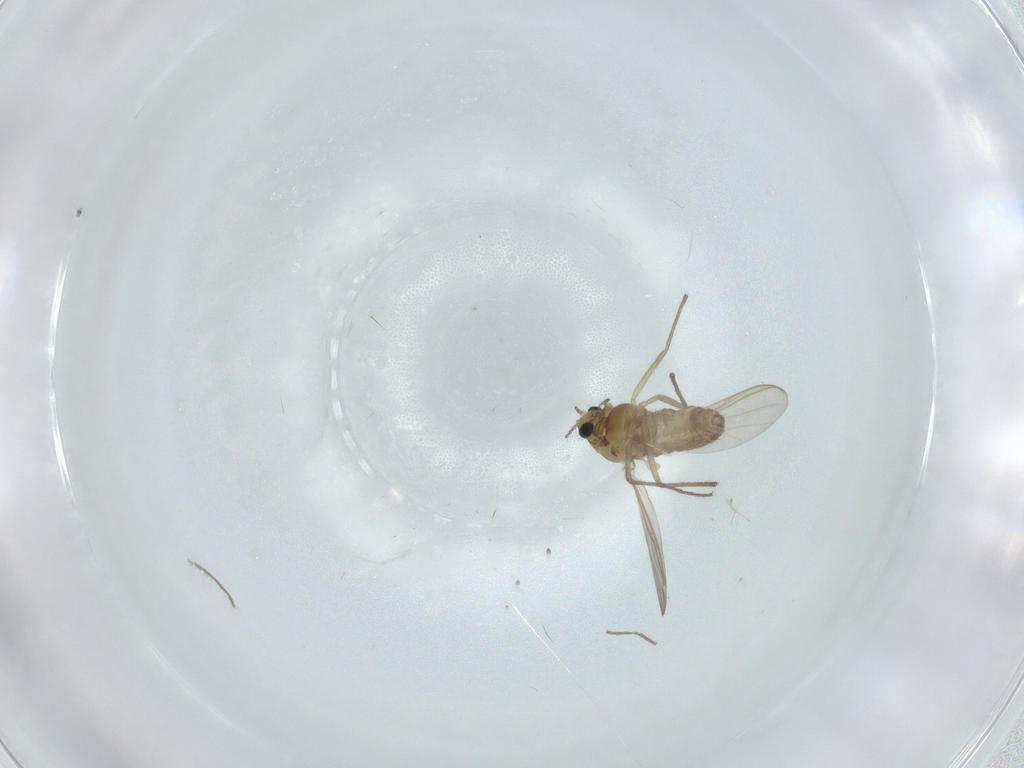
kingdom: Animalia
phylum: Arthropoda
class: Insecta
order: Diptera
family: Chironomidae
